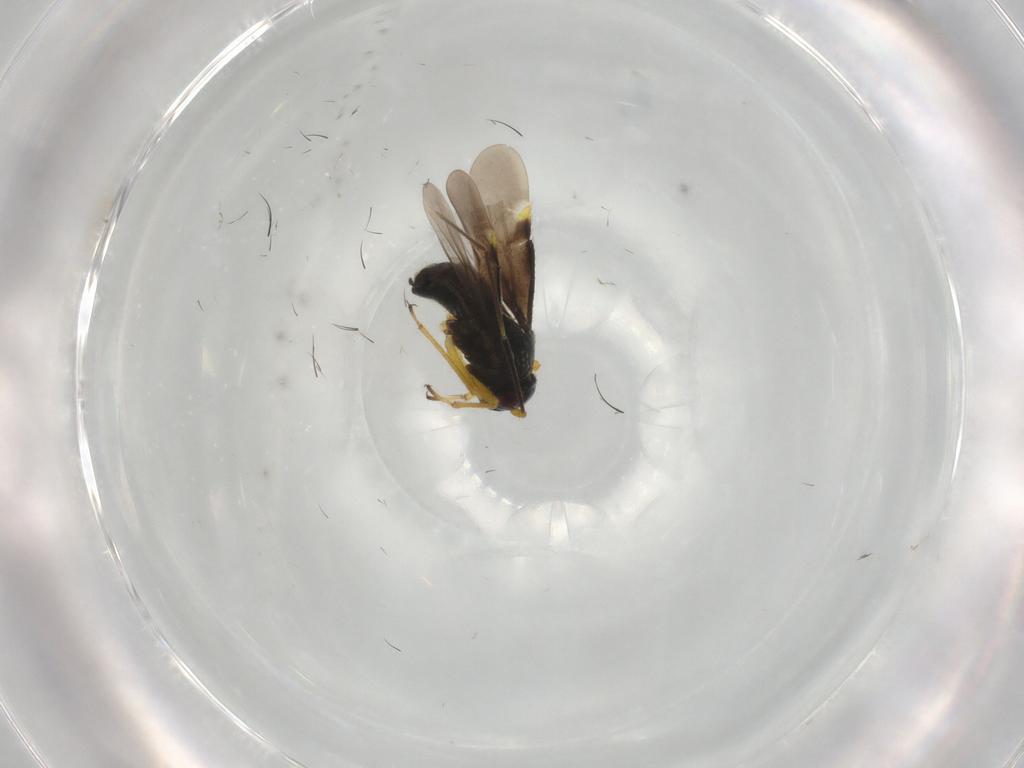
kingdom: Animalia
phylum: Arthropoda
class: Insecta
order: Hemiptera
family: Miridae
